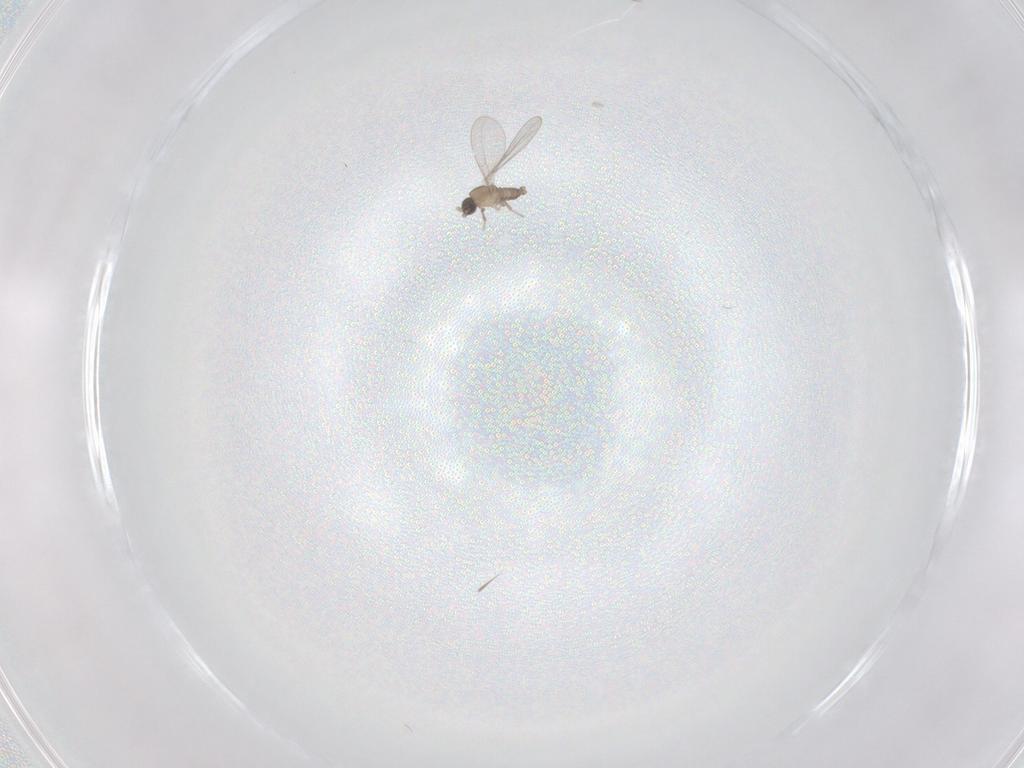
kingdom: Animalia
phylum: Arthropoda
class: Insecta
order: Diptera
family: Cecidomyiidae
